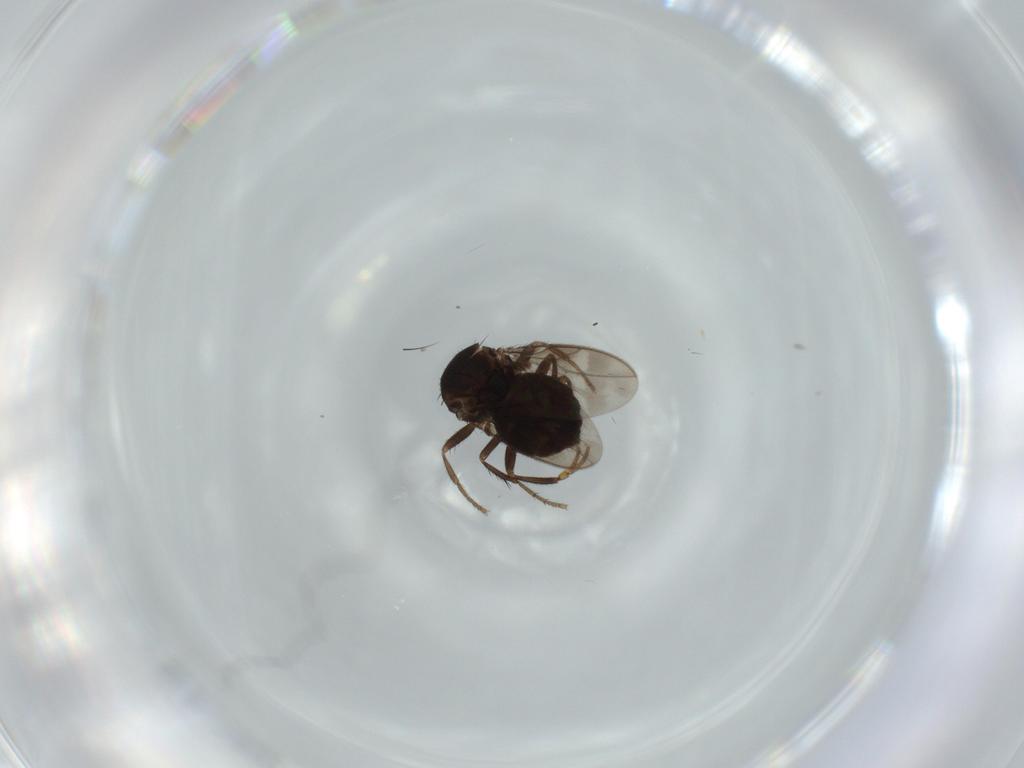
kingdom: Animalia
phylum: Arthropoda
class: Insecta
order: Diptera
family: Sphaeroceridae
